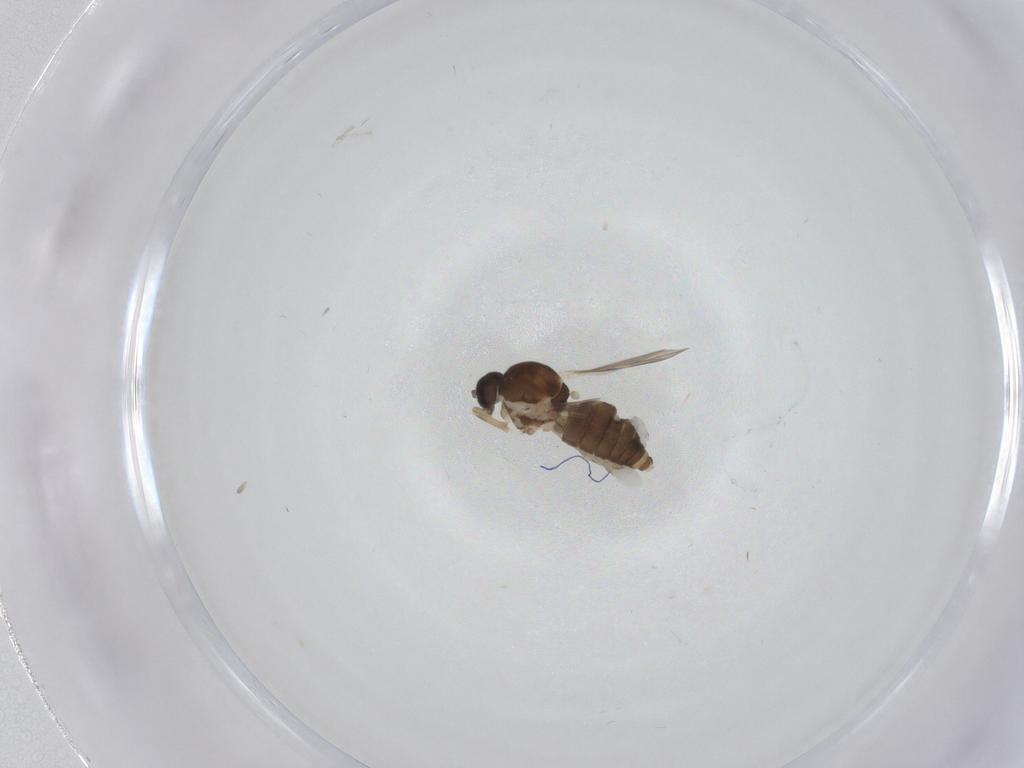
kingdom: Animalia
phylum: Arthropoda
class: Insecta
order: Diptera
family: Ceratopogonidae
